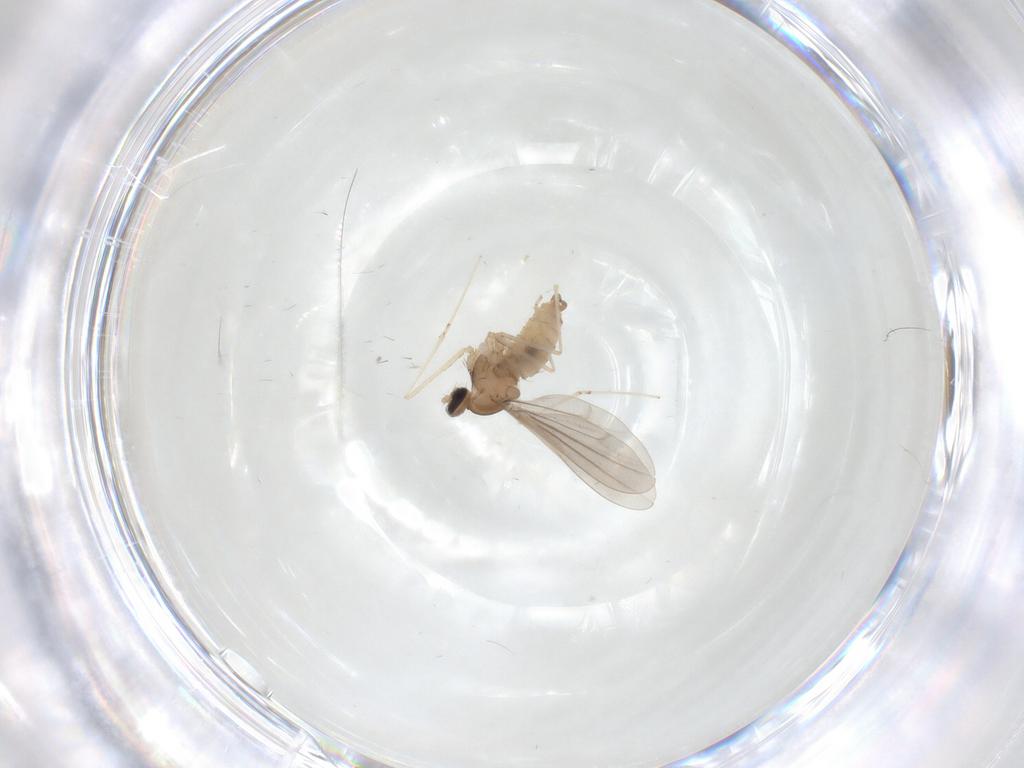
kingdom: Animalia
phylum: Arthropoda
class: Insecta
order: Diptera
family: Cecidomyiidae
